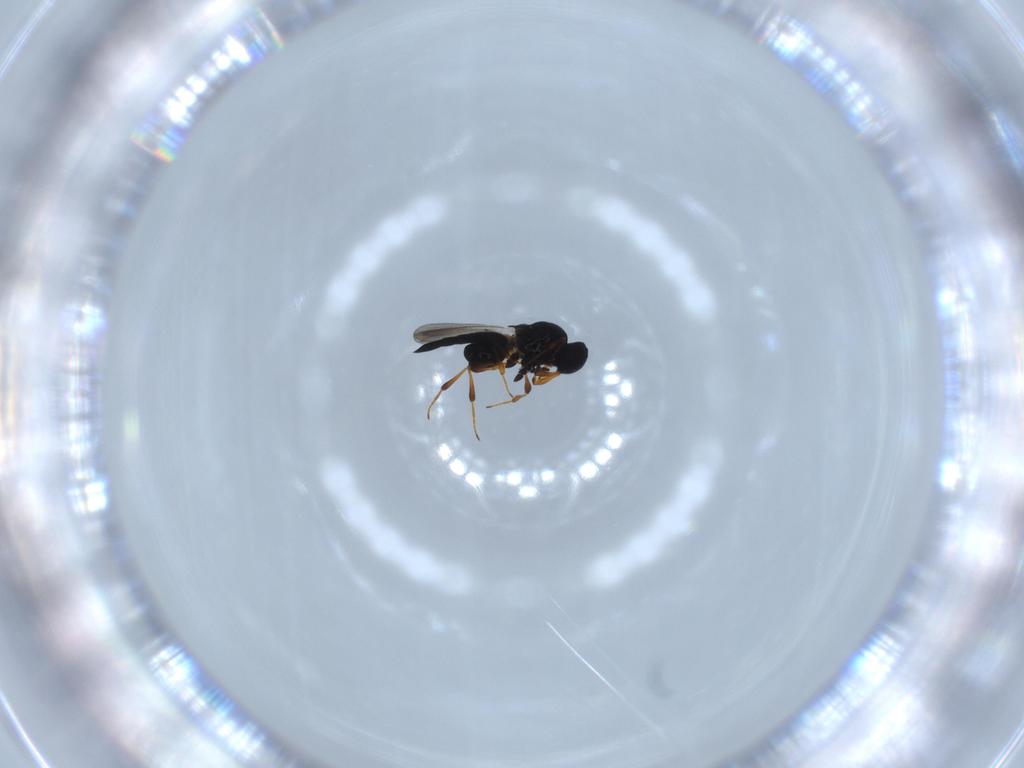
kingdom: Animalia
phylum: Arthropoda
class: Insecta
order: Hymenoptera
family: Platygastridae
